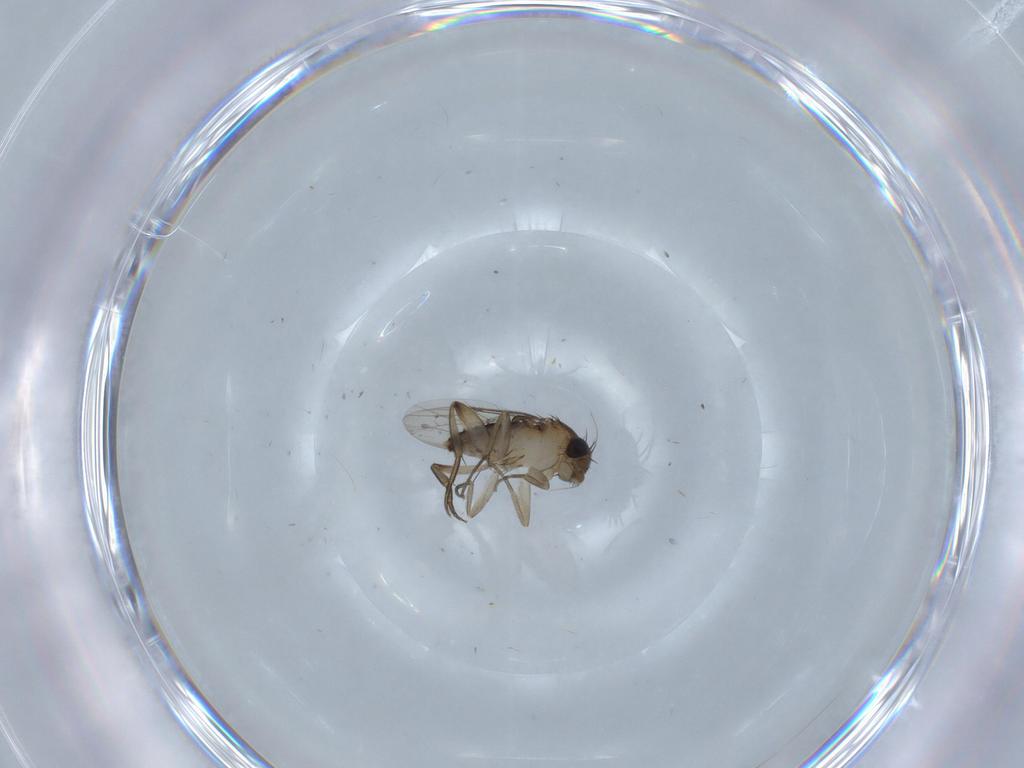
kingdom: Animalia
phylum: Arthropoda
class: Insecta
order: Diptera
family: Phoridae
